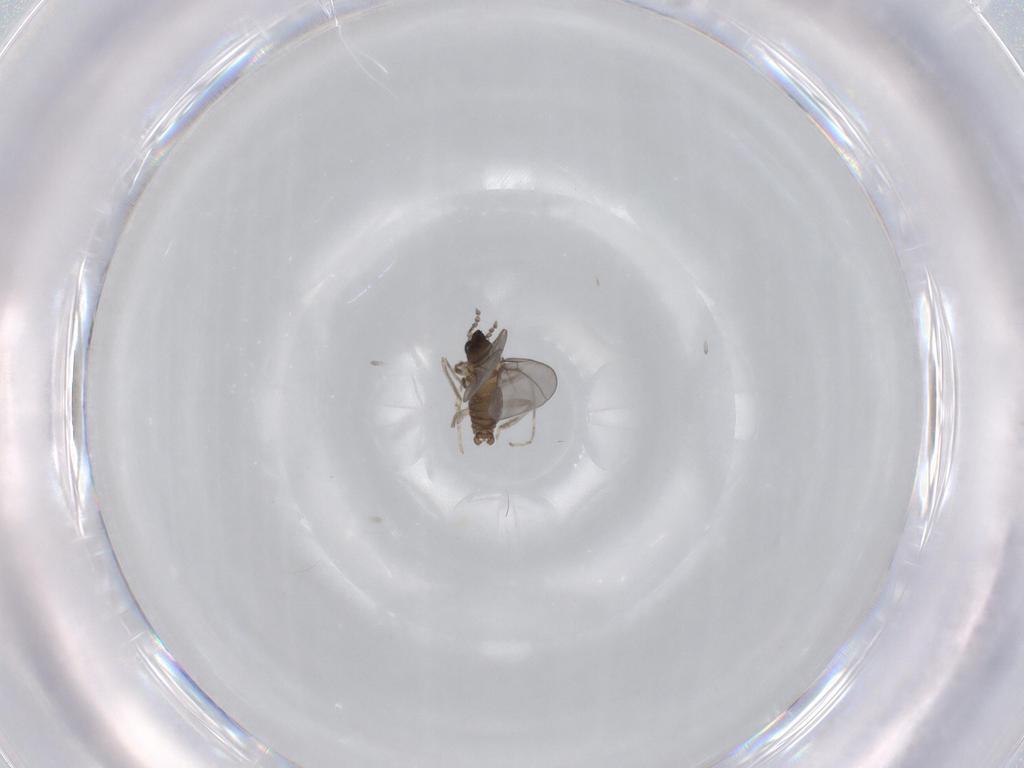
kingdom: Animalia
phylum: Arthropoda
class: Insecta
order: Diptera
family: Cecidomyiidae
